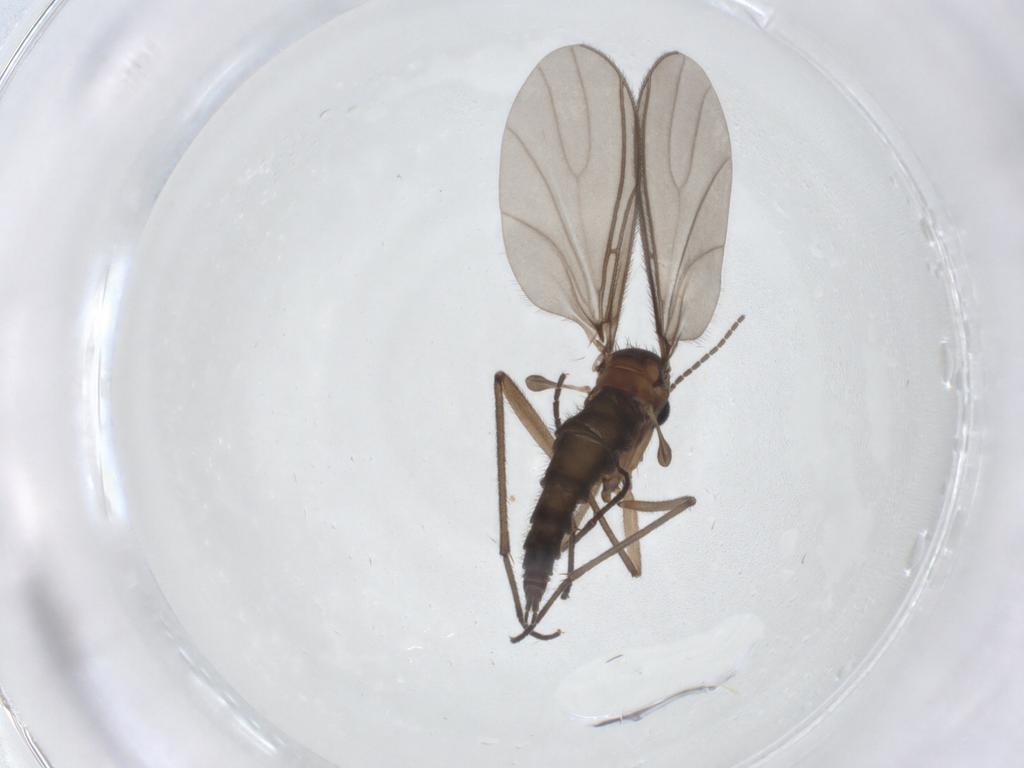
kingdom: Animalia
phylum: Arthropoda
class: Insecta
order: Diptera
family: Sciaridae
